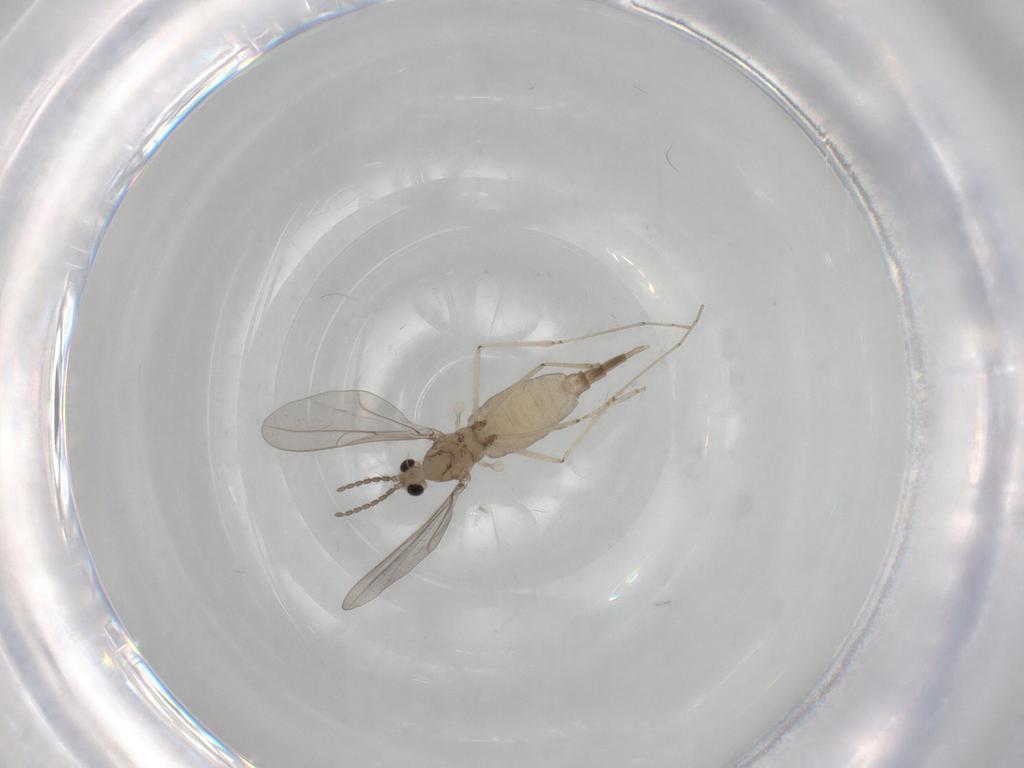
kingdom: Animalia
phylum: Arthropoda
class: Insecta
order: Diptera
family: Cecidomyiidae
